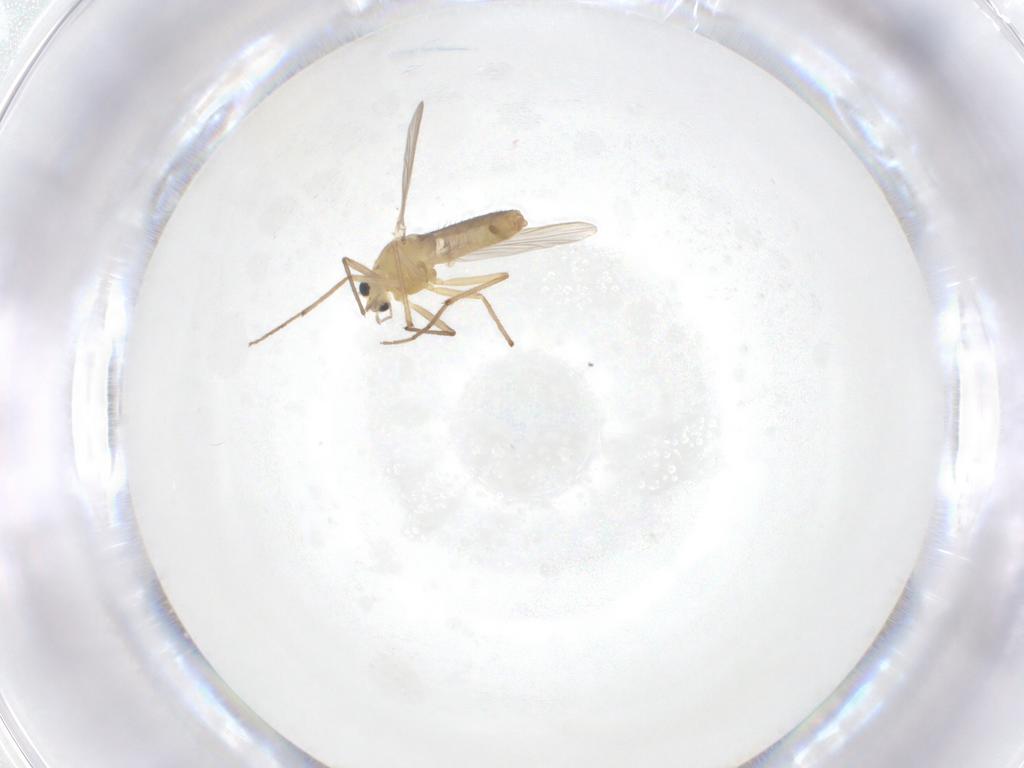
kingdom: Animalia
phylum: Arthropoda
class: Insecta
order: Diptera
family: Chironomidae
